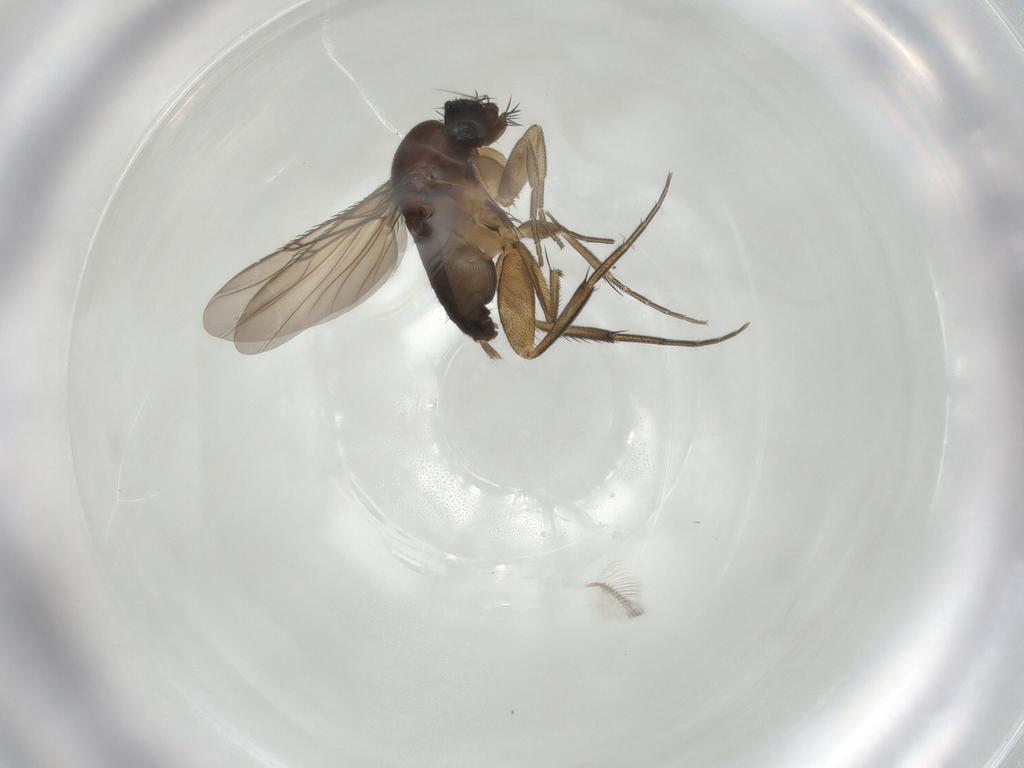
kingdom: Animalia
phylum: Arthropoda
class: Insecta
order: Diptera
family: Phoridae
